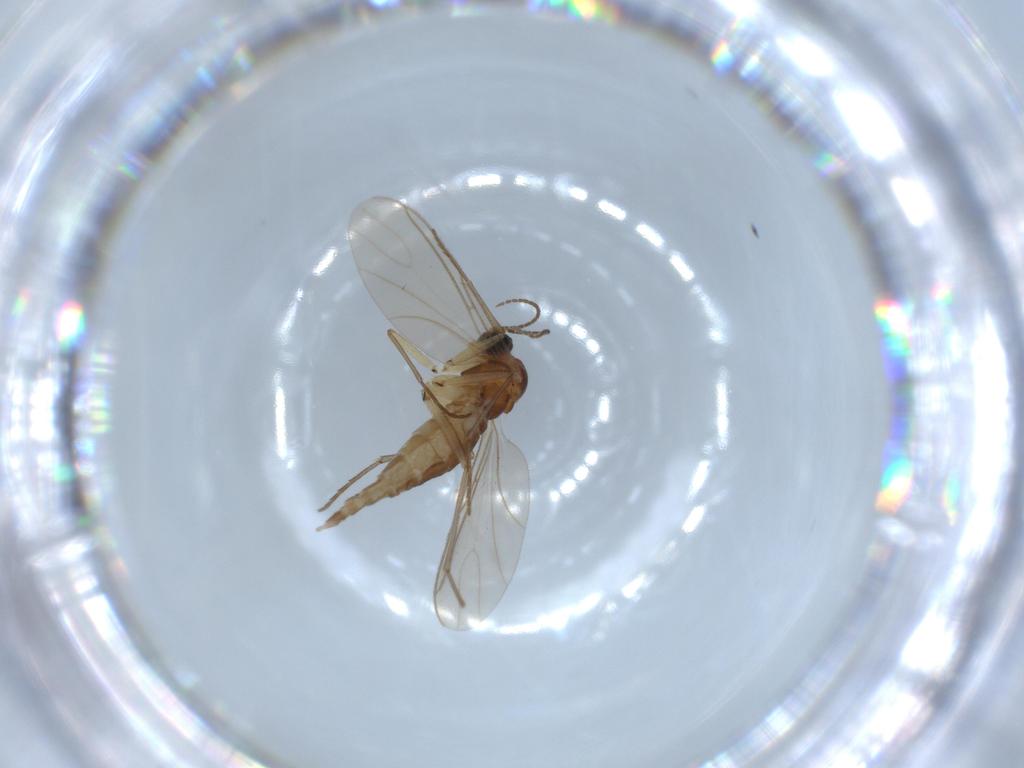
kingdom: Animalia
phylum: Arthropoda
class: Insecta
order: Diptera
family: Sciaridae
